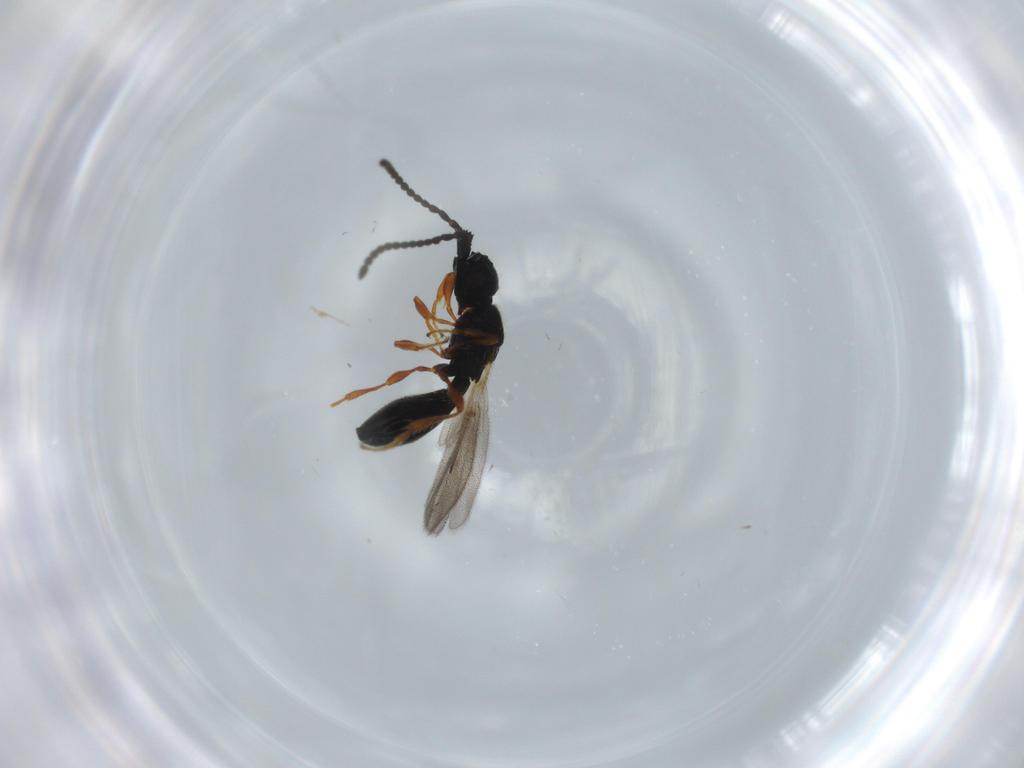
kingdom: Animalia
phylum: Arthropoda
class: Insecta
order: Hymenoptera
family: Diapriidae
